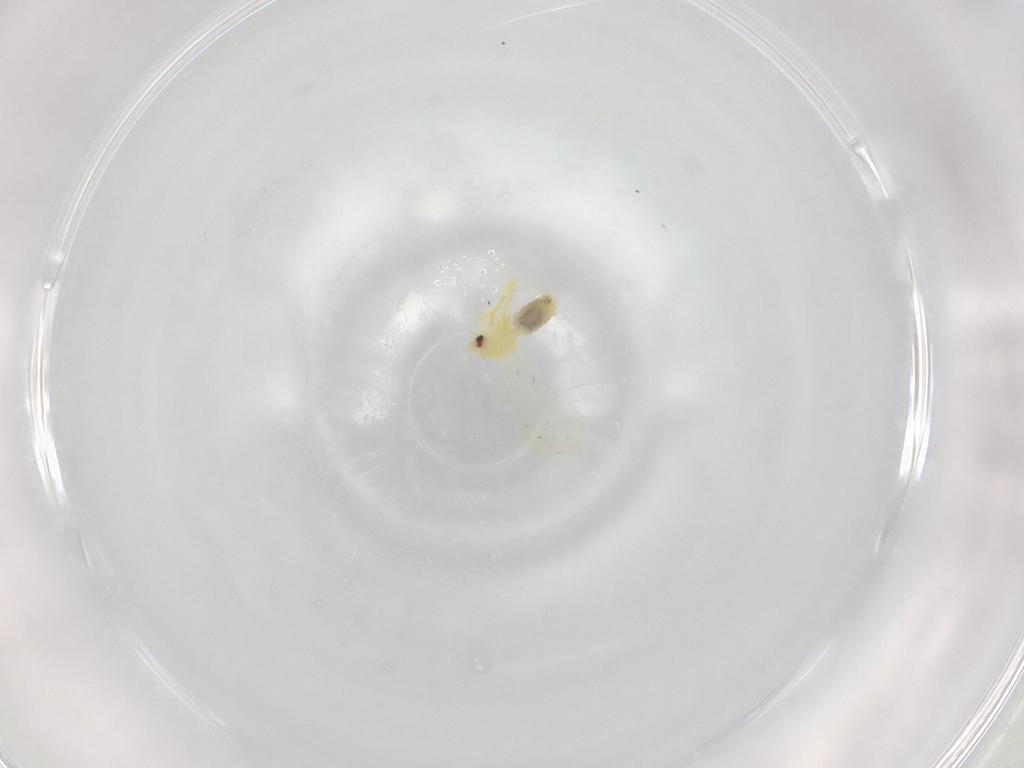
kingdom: Animalia
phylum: Arthropoda
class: Insecta
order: Hemiptera
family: Aleyrodidae
